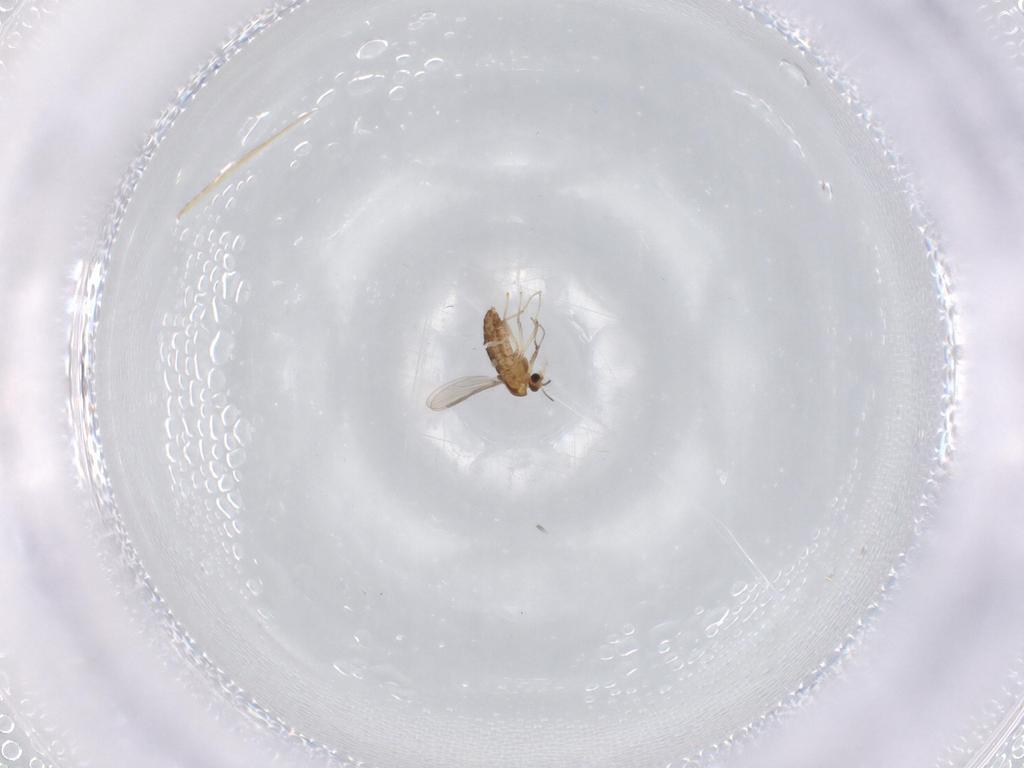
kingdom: Animalia
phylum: Arthropoda
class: Insecta
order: Diptera
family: Chironomidae
